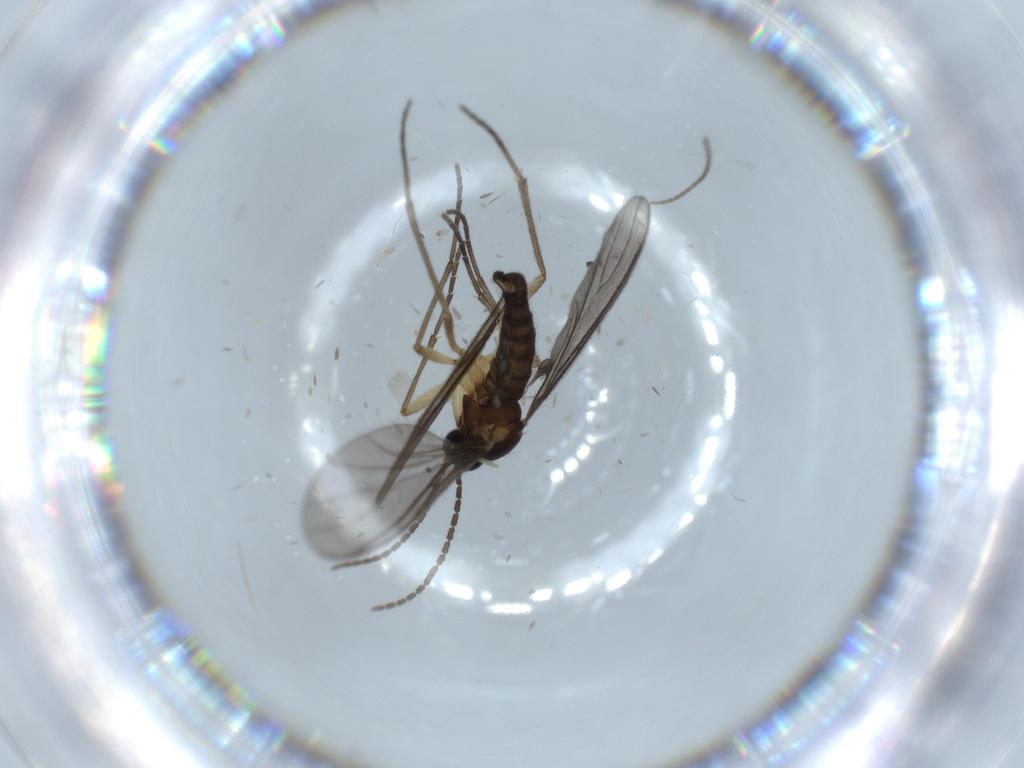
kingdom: Animalia
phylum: Arthropoda
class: Insecta
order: Diptera
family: Sciaridae
